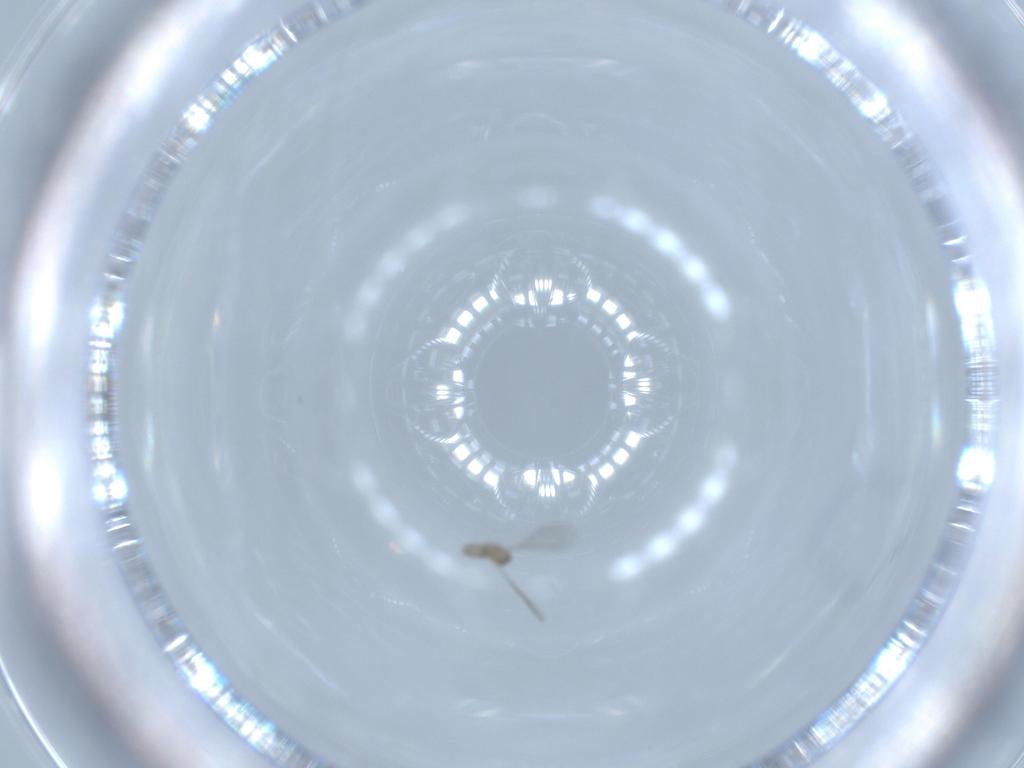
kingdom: Animalia
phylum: Arthropoda
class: Insecta
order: Diptera
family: Cecidomyiidae
